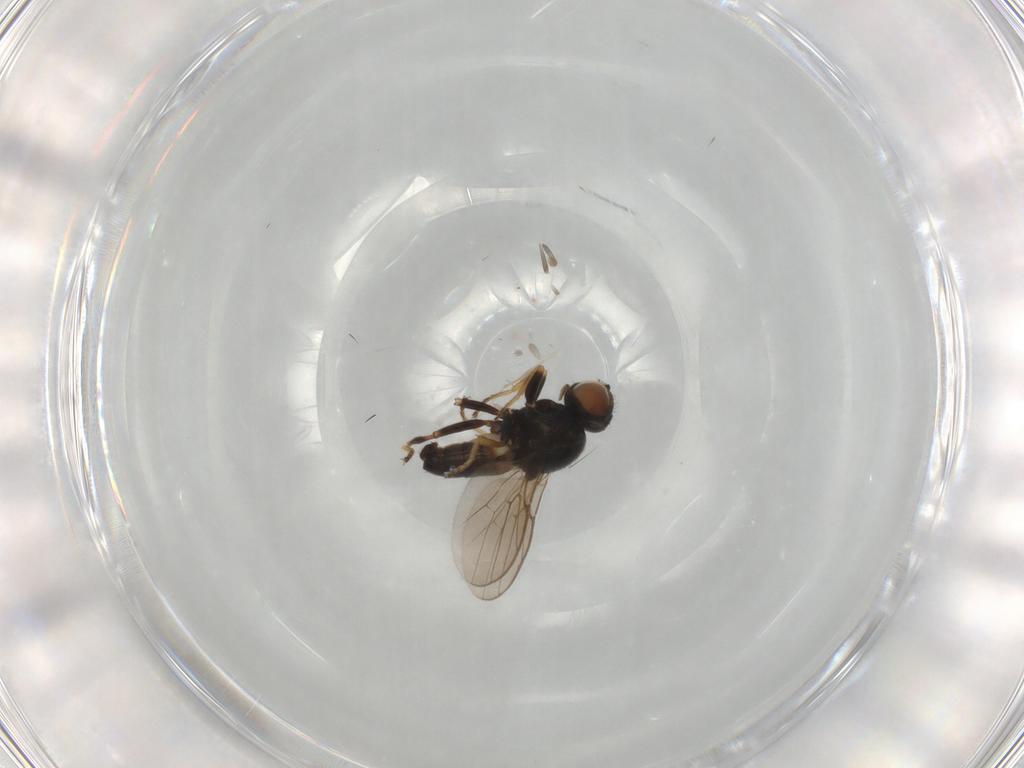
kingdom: Animalia
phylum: Arthropoda
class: Insecta
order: Diptera
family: Chloropidae
